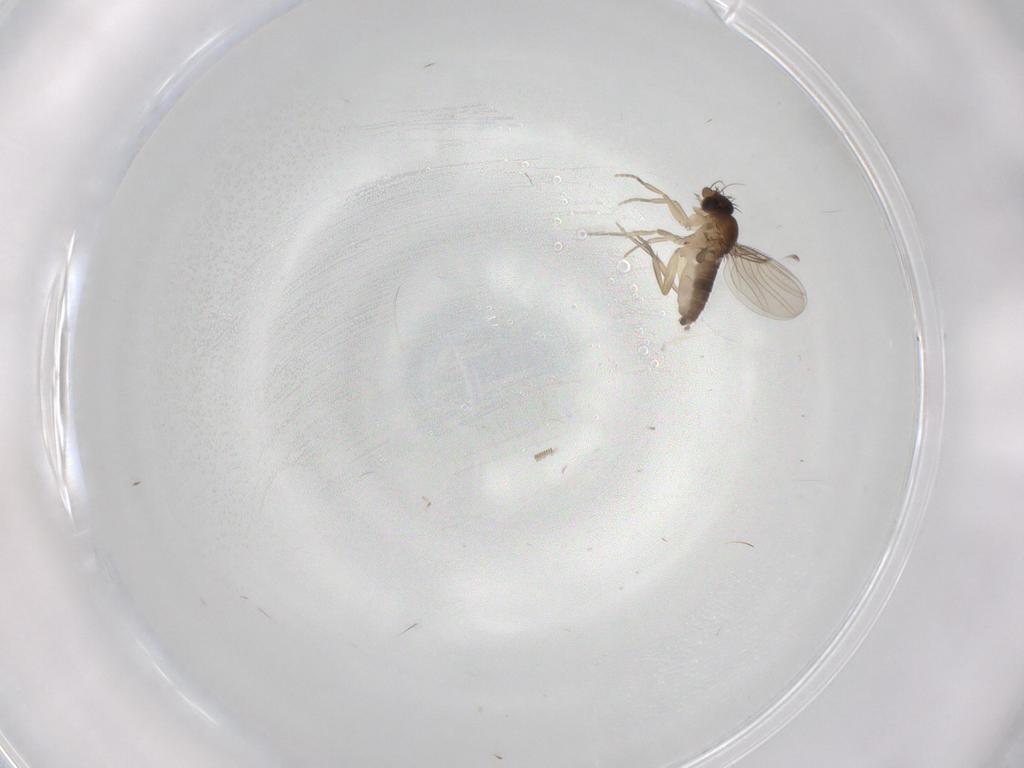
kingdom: Animalia
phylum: Arthropoda
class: Insecta
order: Diptera
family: Phoridae
